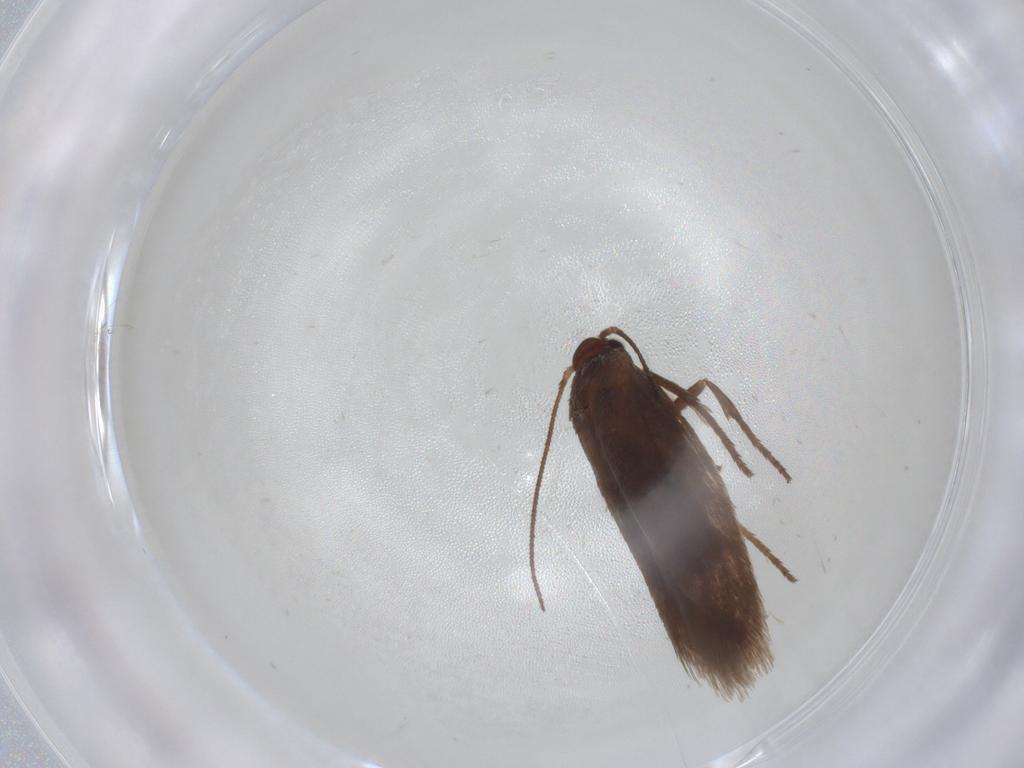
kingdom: Animalia
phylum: Arthropoda
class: Insecta
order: Lepidoptera
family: Limacodidae
